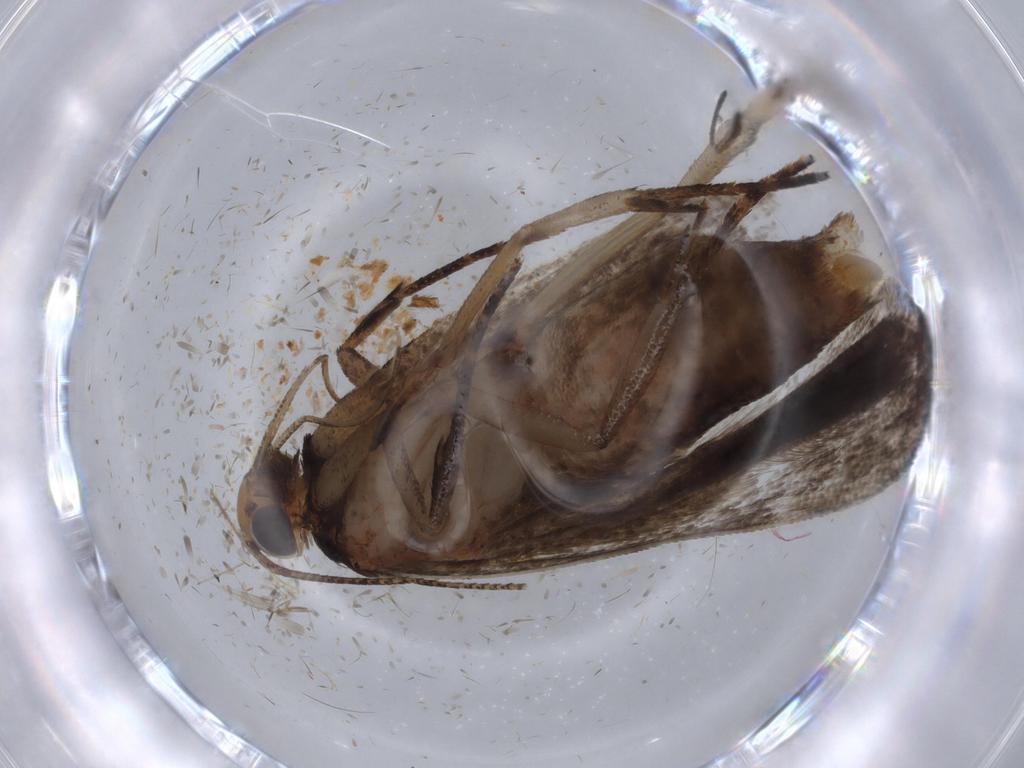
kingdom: Animalia
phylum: Arthropoda
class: Insecta
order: Lepidoptera
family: Gelechiidae
